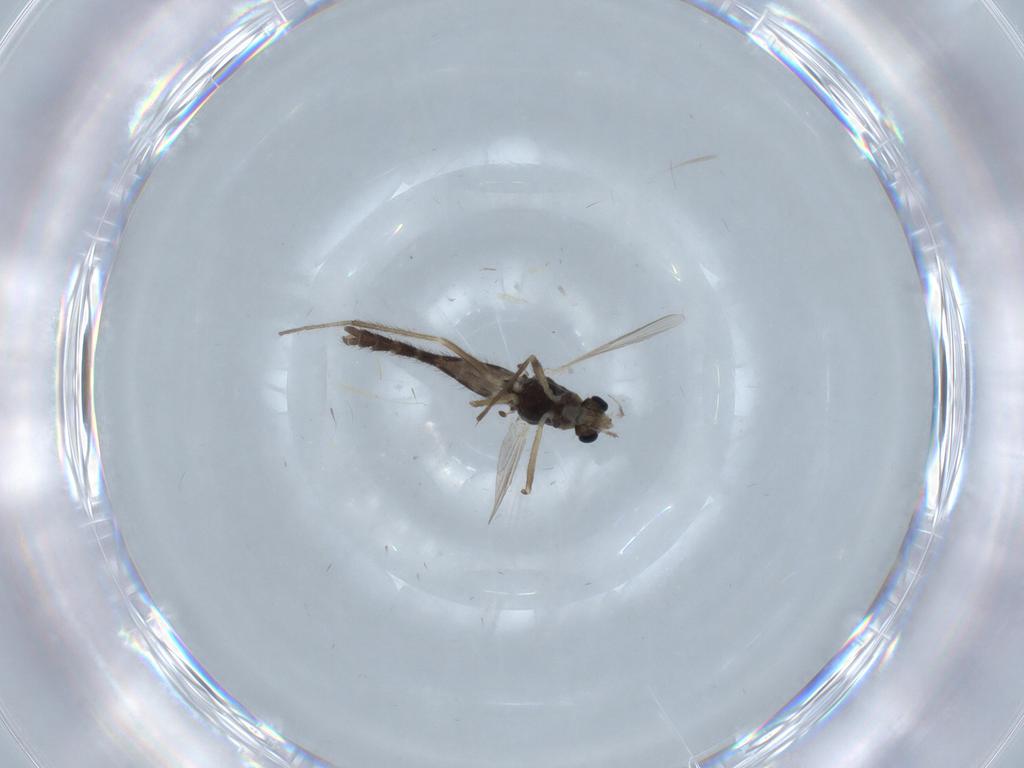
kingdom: Animalia
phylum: Arthropoda
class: Insecta
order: Diptera
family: Chironomidae
